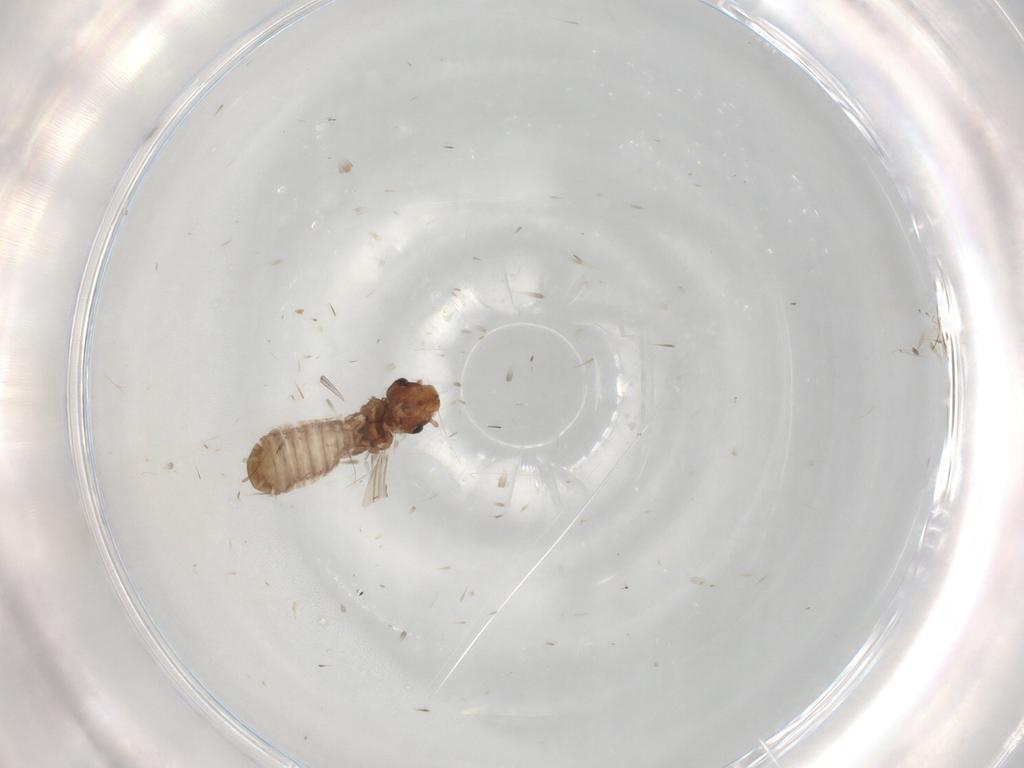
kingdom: Animalia
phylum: Arthropoda
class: Insecta
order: Psocodea
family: Liposcelididae
